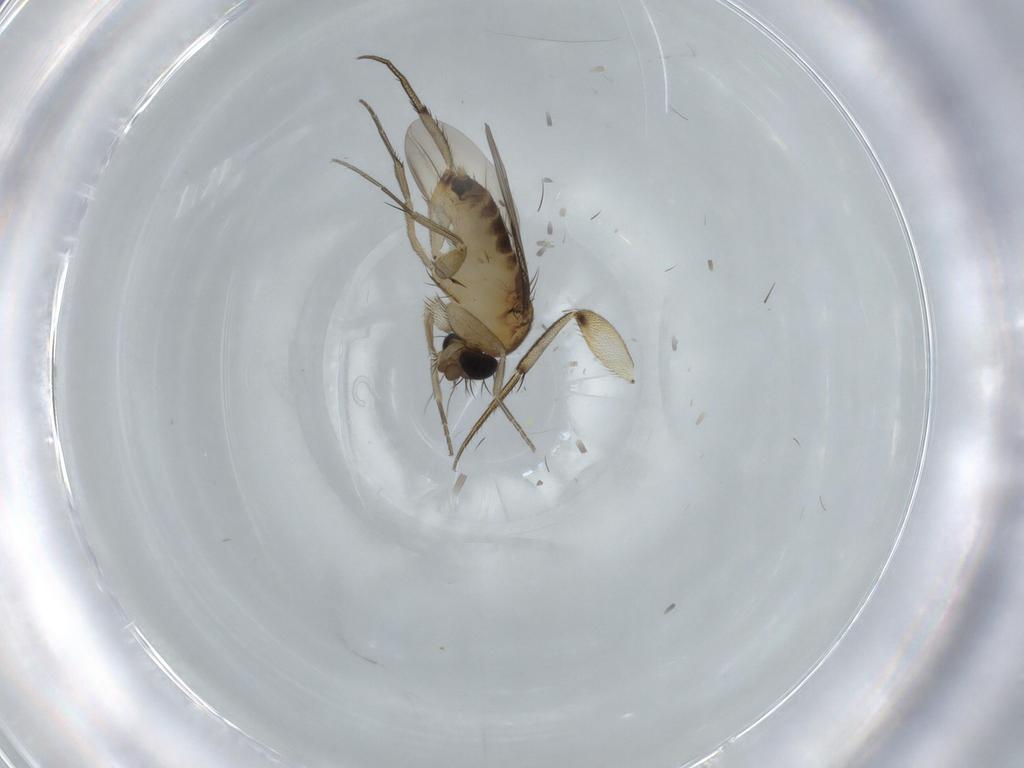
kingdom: Animalia
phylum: Arthropoda
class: Insecta
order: Diptera
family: Phoridae
